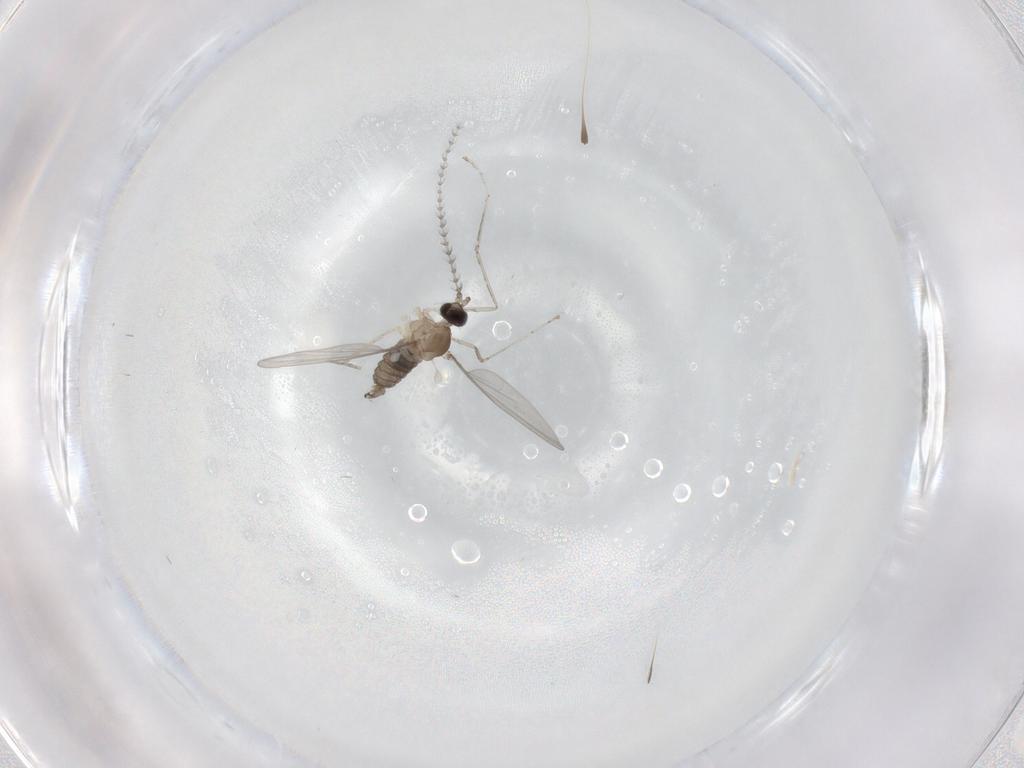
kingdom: Animalia
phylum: Arthropoda
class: Insecta
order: Diptera
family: Cecidomyiidae
